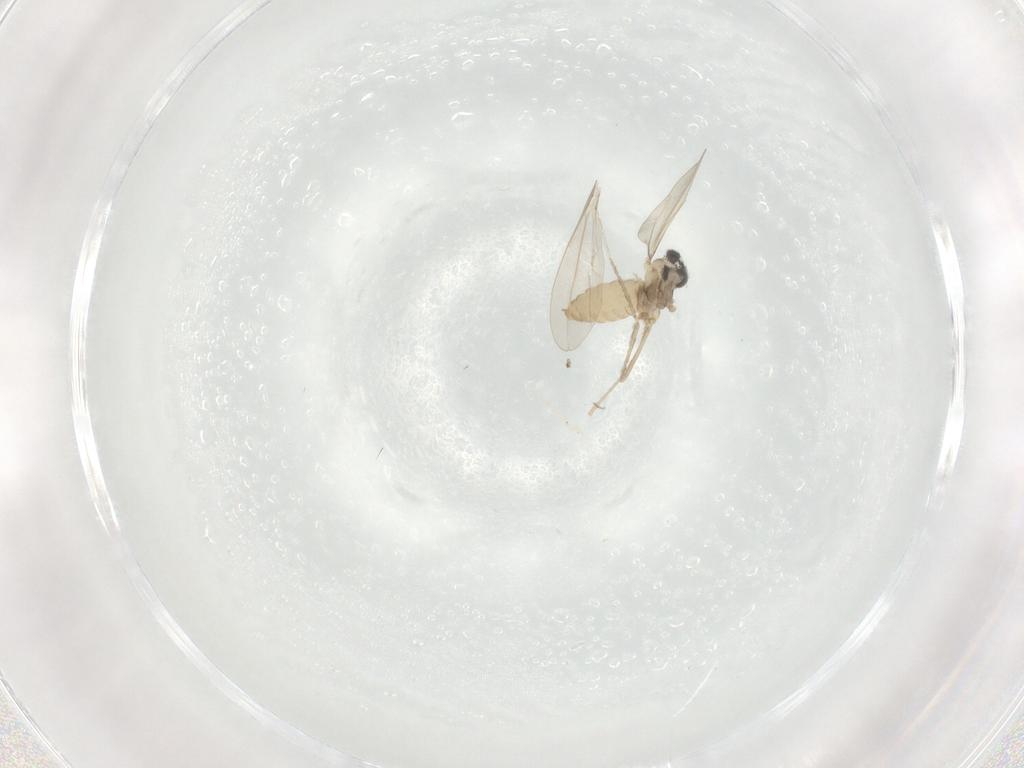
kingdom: Animalia
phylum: Arthropoda
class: Insecta
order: Diptera
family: Cecidomyiidae
